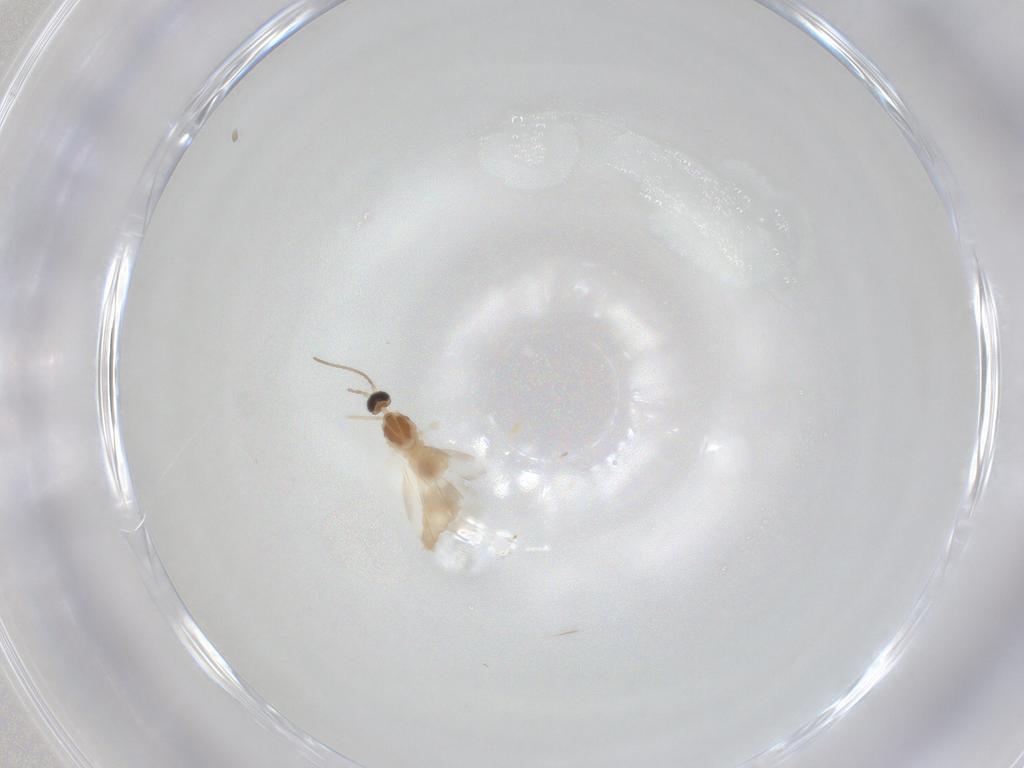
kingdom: Animalia
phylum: Arthropoda
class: Insecta
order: Diptera
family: Cecidomyiidae
